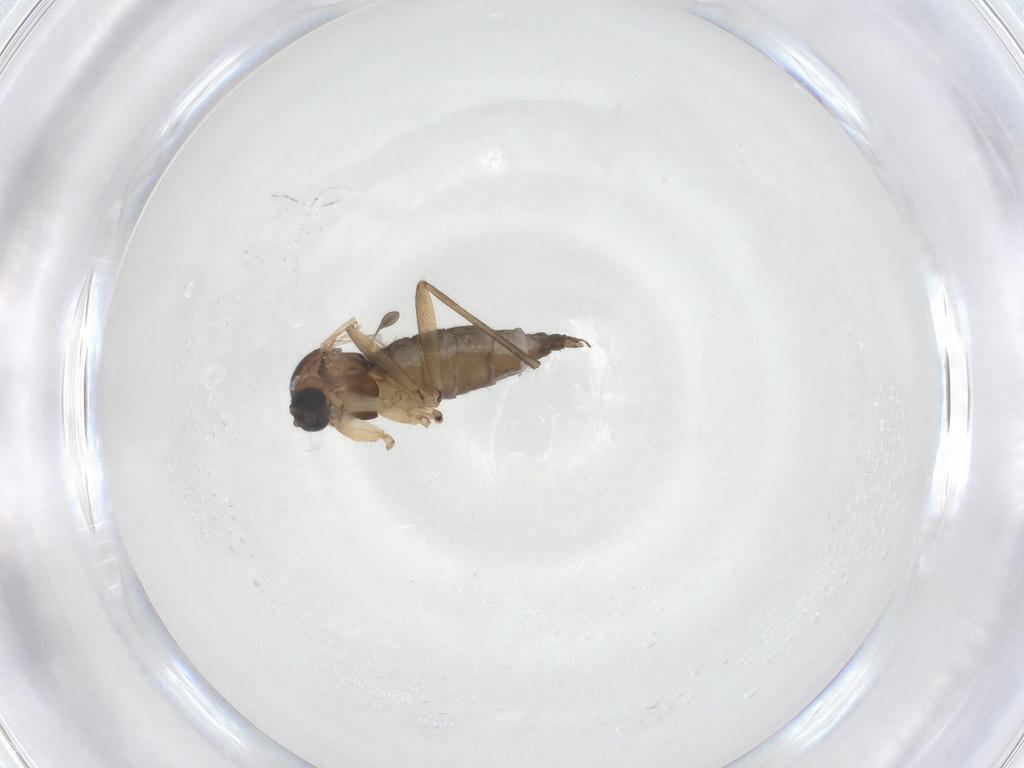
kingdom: Animalia
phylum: Arthropoda
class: Insecta
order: Diptera
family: Sciaridae
